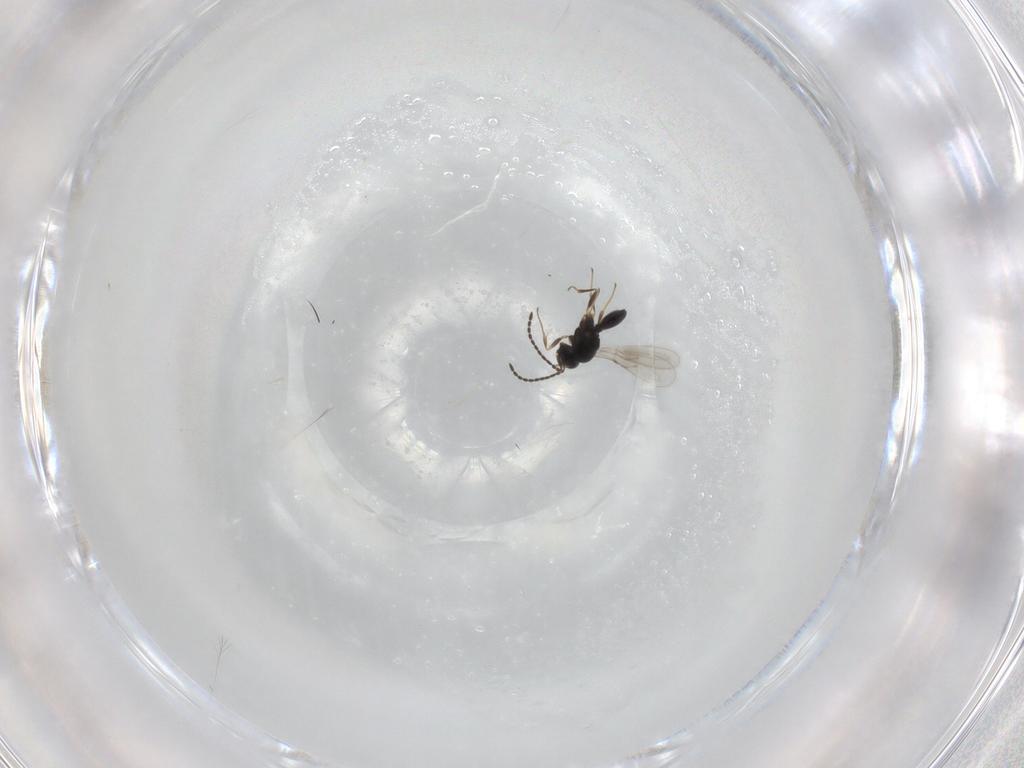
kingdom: Animalia
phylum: Arthropoda
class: Insecta
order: Hymenoptera
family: Scelionidae
